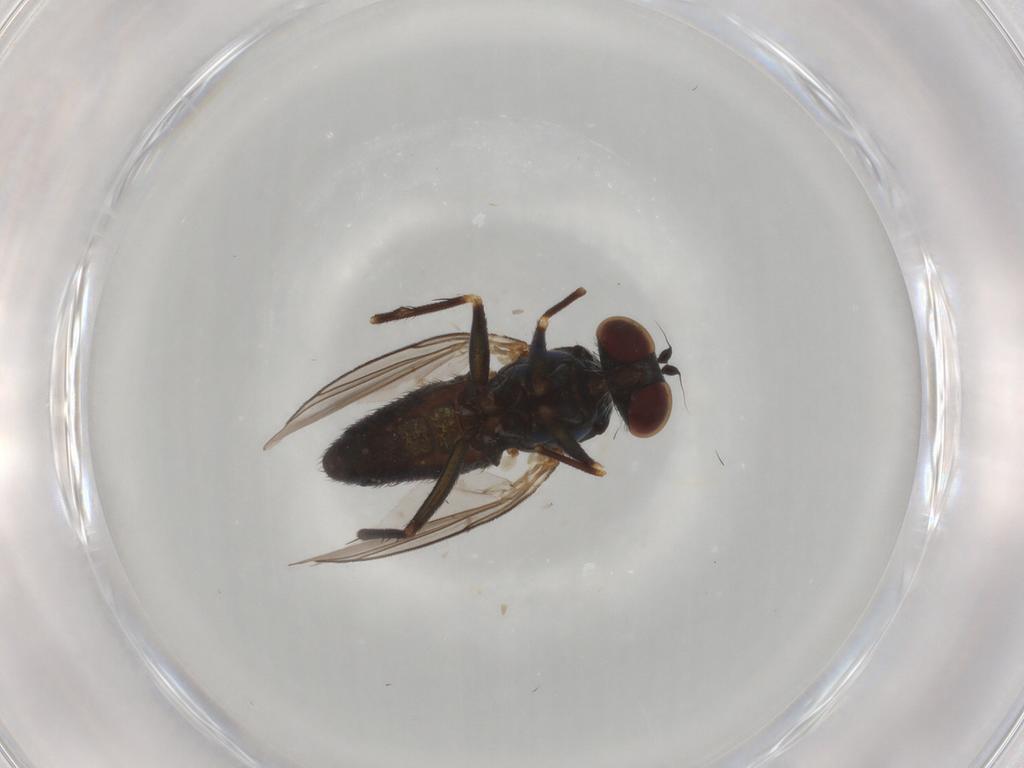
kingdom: Animalia
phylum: Arthropoda
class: Insecta
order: Diptera
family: Dolichopodidae
